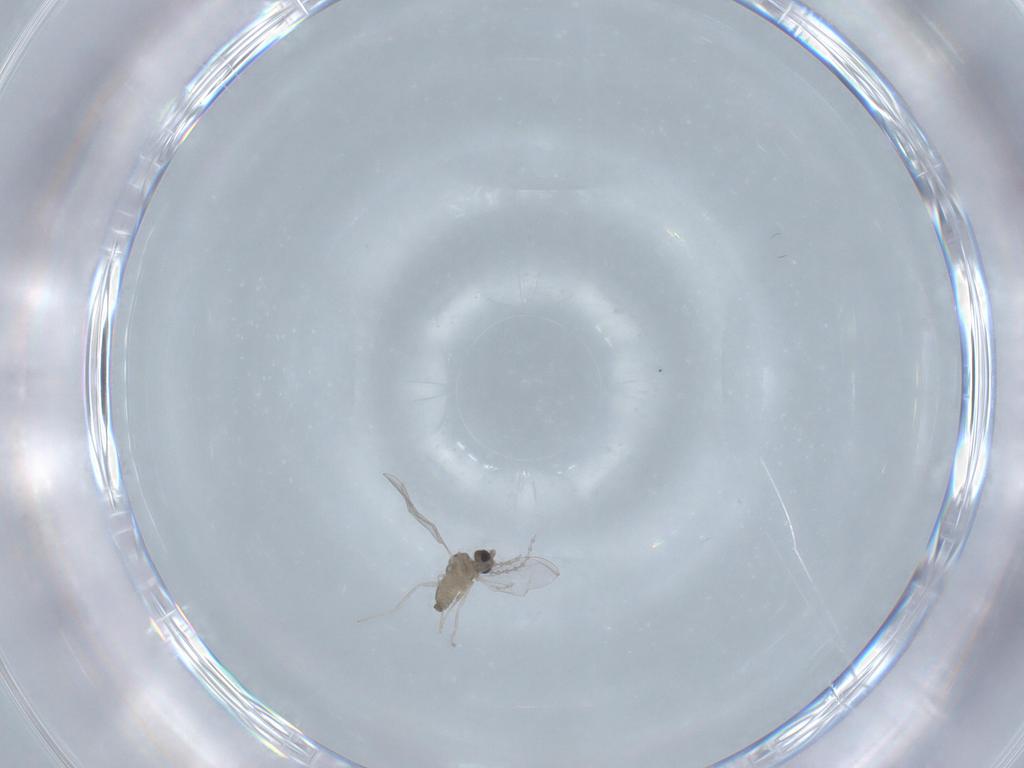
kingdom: Animalia
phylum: Arthropoda
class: Insecta
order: Diptera
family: Cecidomyiidae
